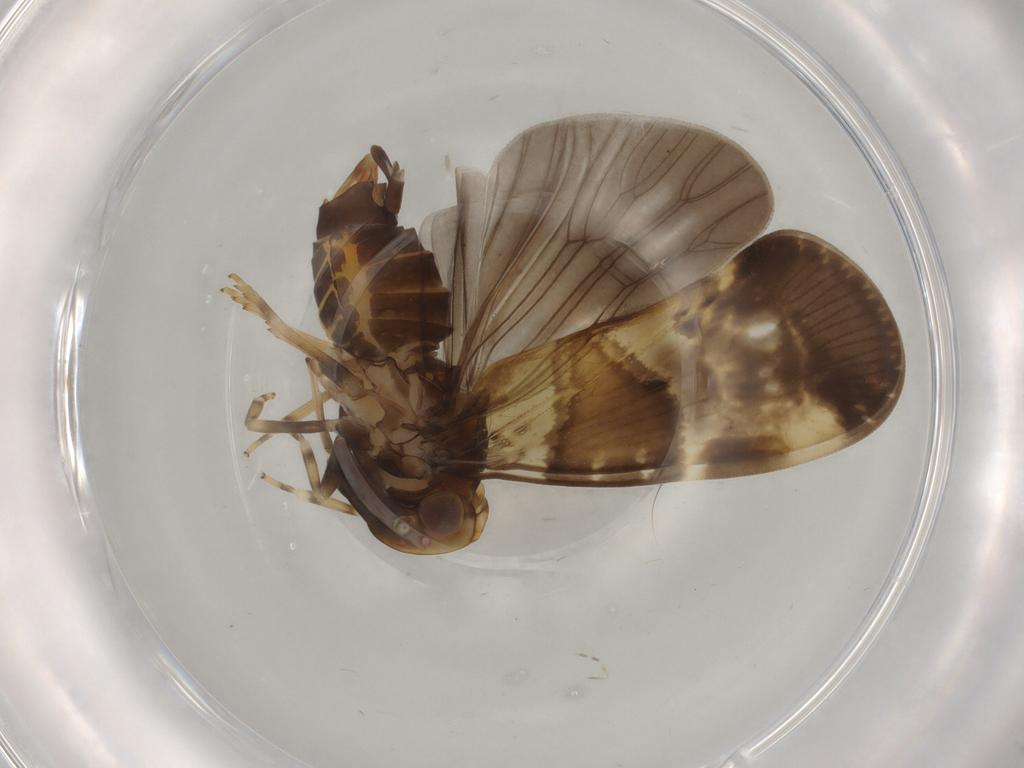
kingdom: Animalia
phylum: Arthropoda
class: Insecta
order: Hemiptera
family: Cixiidae
